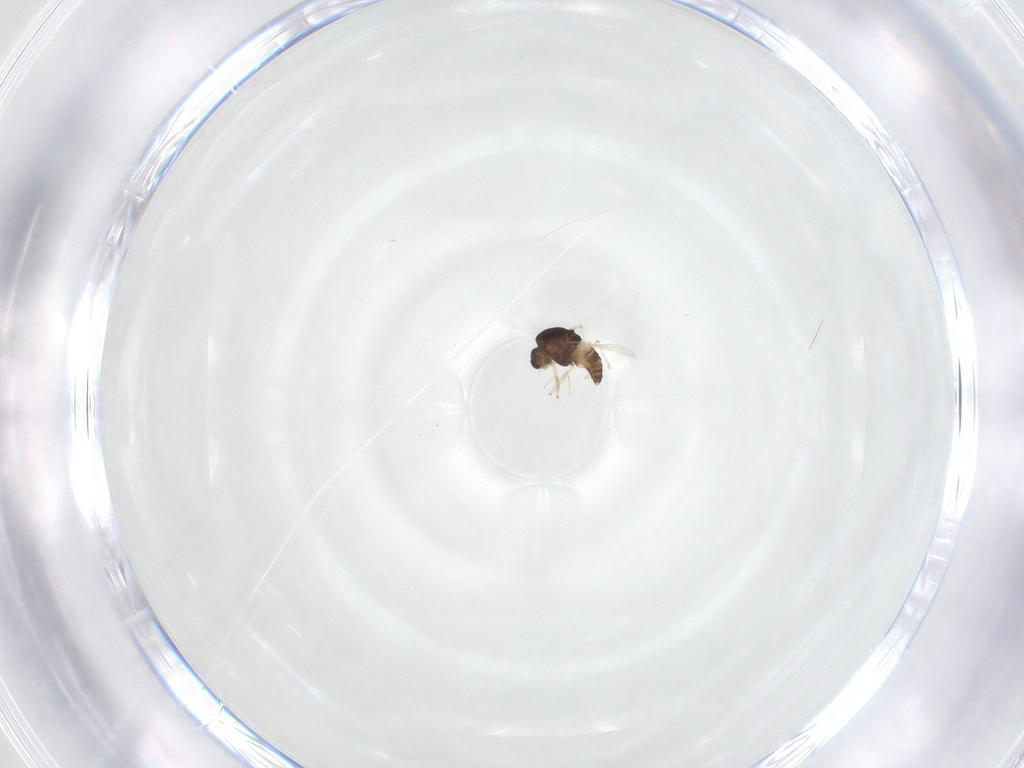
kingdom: Animalia
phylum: Arthropoda
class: Insecta
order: Diptera
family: Chironomidae
